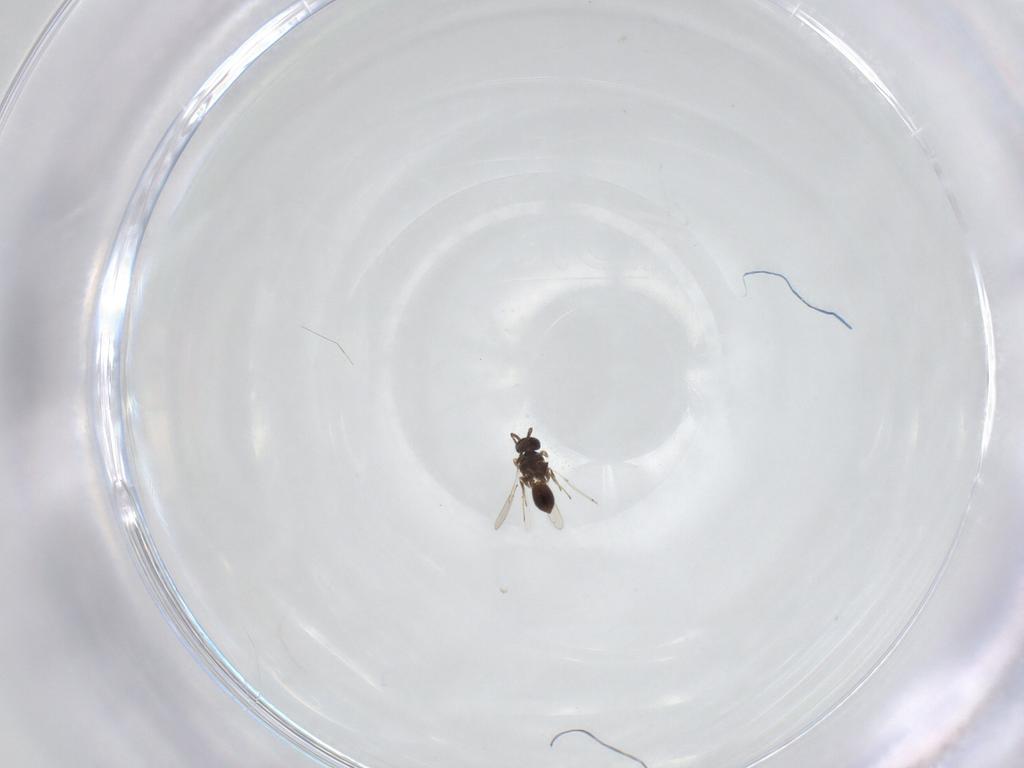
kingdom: Animalia
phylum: Arthropoda
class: Insecta
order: Hymenoptera
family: Scelionidae
